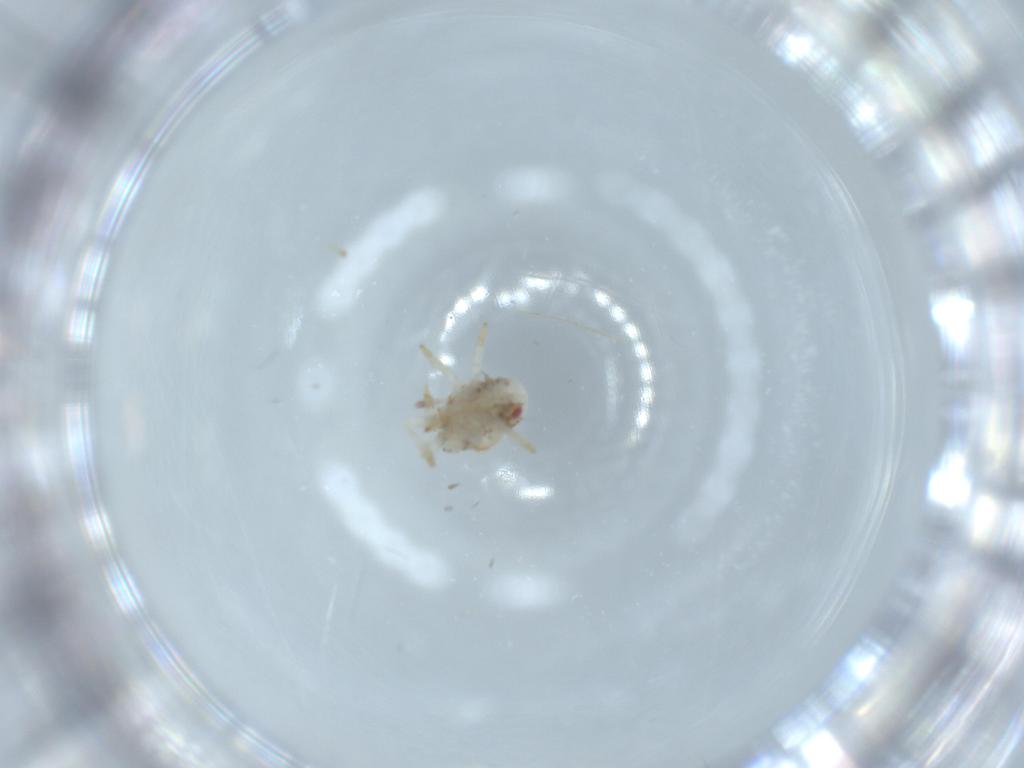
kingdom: Animalia
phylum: Arthropoda
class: Insecta
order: Hemiptera
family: Acanaloniidae
